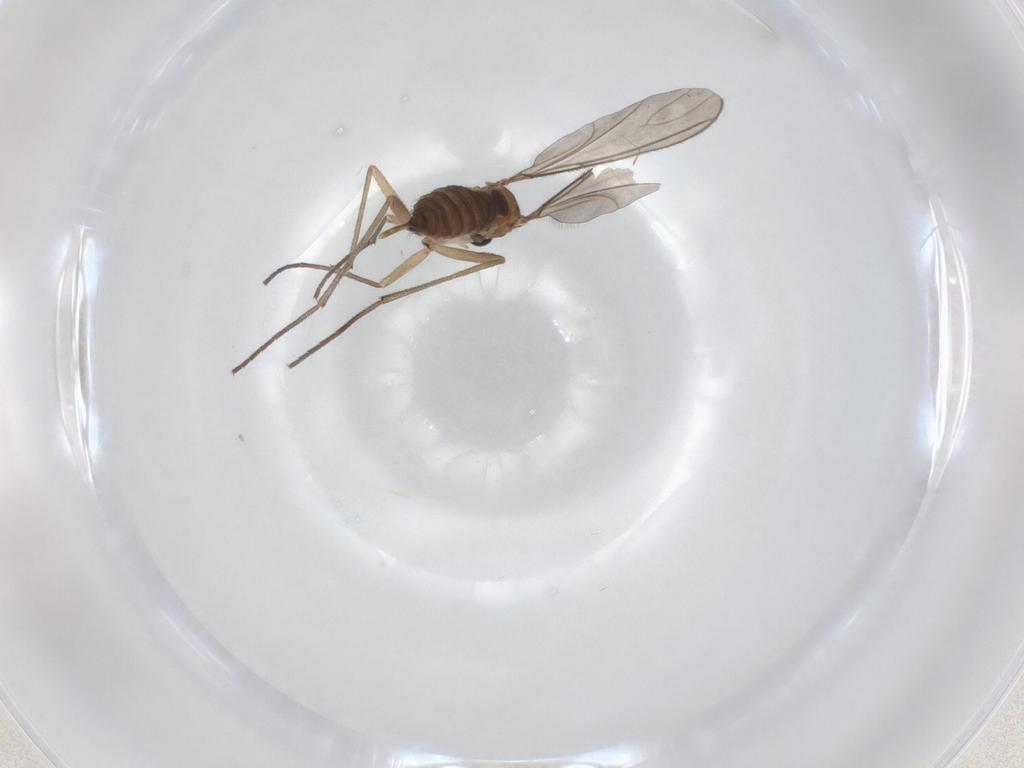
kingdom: Animalia
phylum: Arthropoda
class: Insecta
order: Diptera
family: Sciaridae
